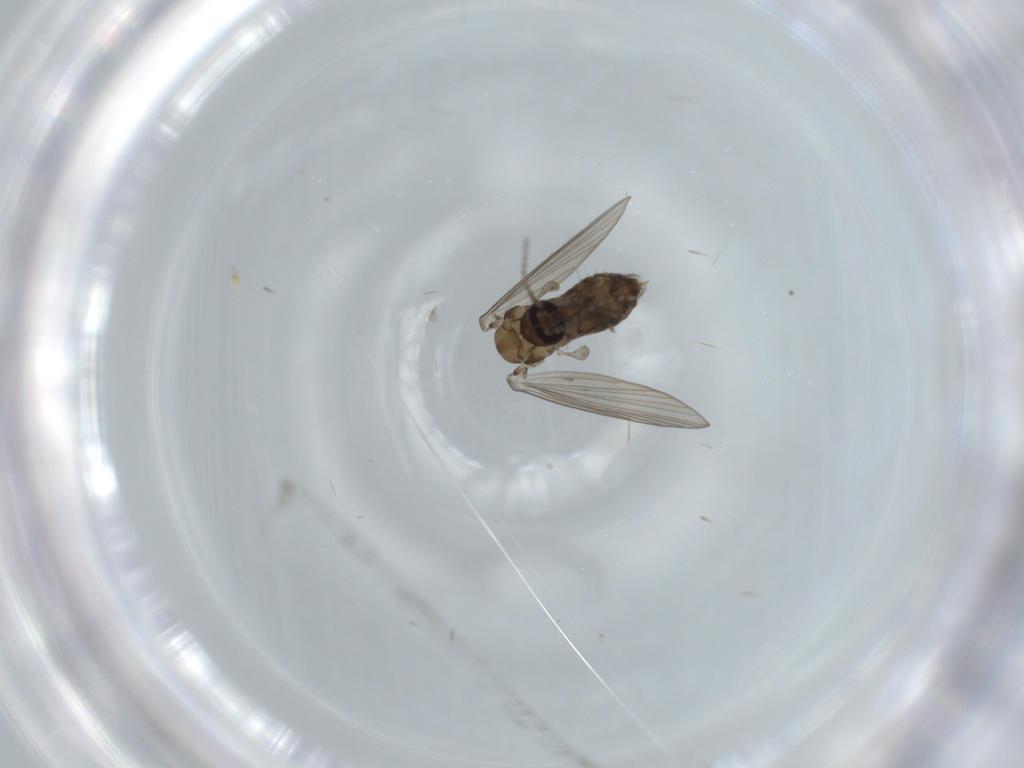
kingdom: Animalia
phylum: Arthropoda
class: Insecta
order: Diptera
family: Psychodidae
